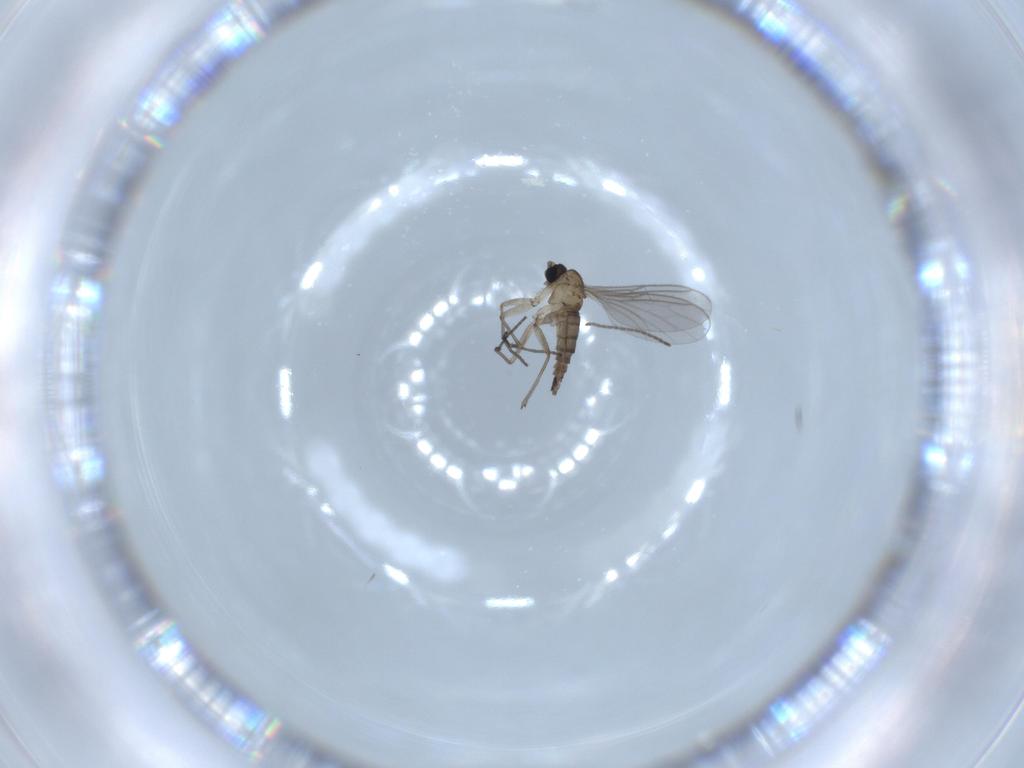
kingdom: Animalia
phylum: Arthropoda
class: Insecta
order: Diptera
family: Sciaridae
